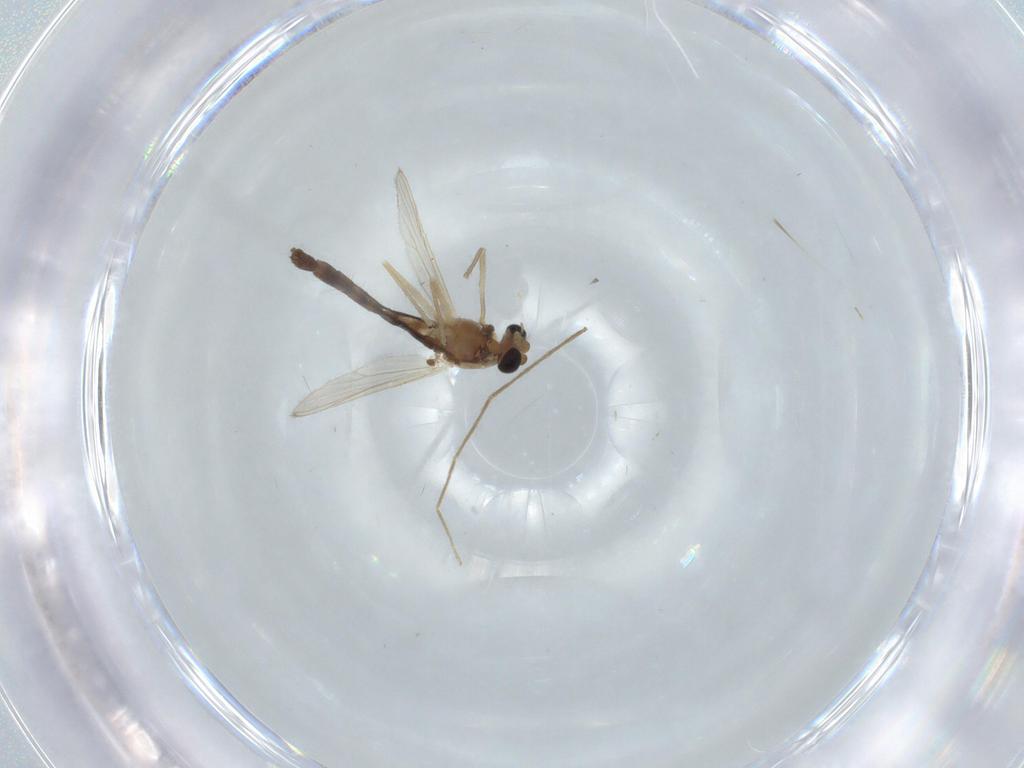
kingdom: Animalia
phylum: Arthropoda
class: Insecta
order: Diptera
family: Chironomidae
